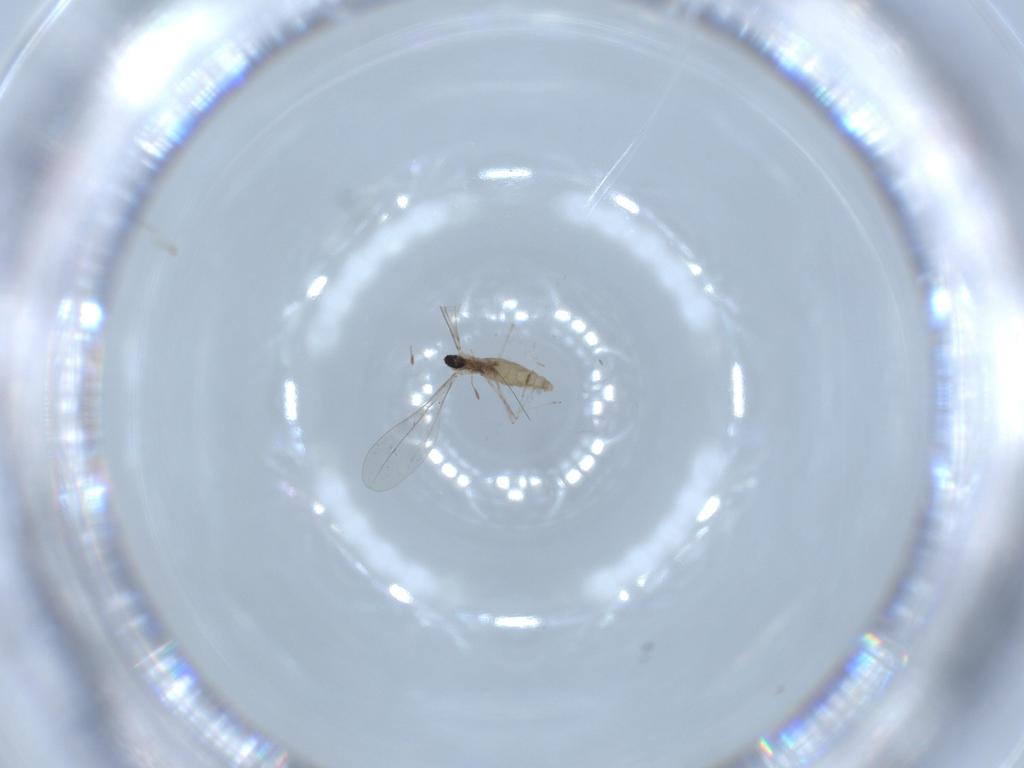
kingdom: Animalia
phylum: Arthropoda
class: Insecta
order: Diptera
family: Cecidomyiidae
